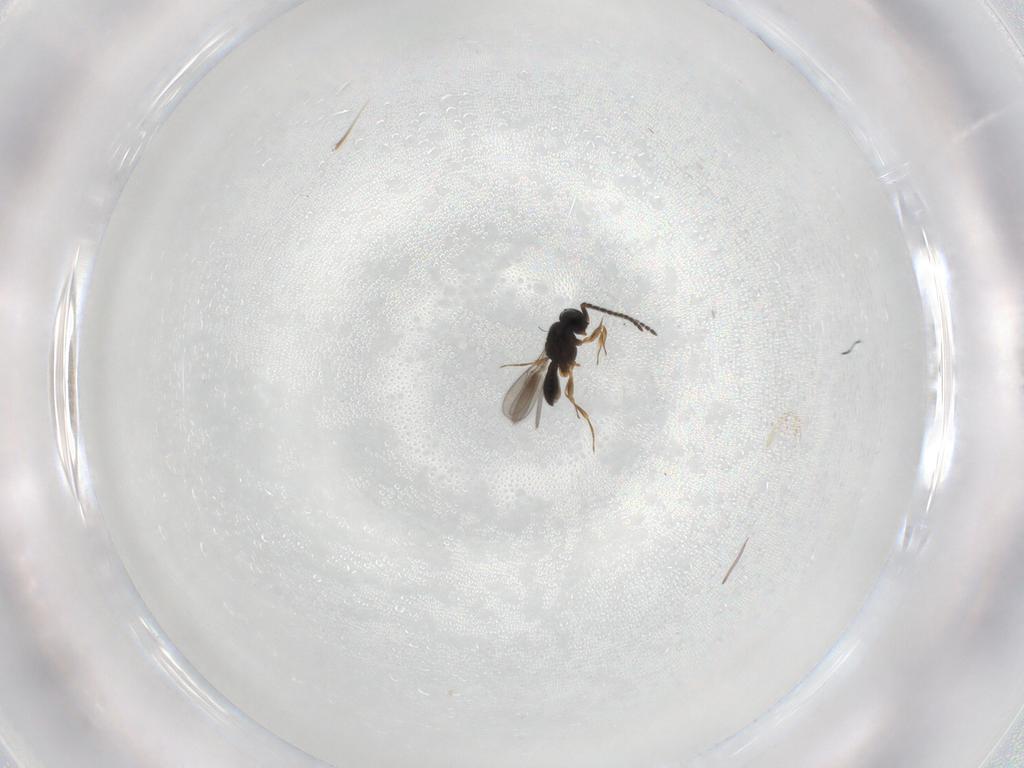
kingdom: Animalia
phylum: Arthropoda
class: Insecta
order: Hymenoptera
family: Scelionidae
